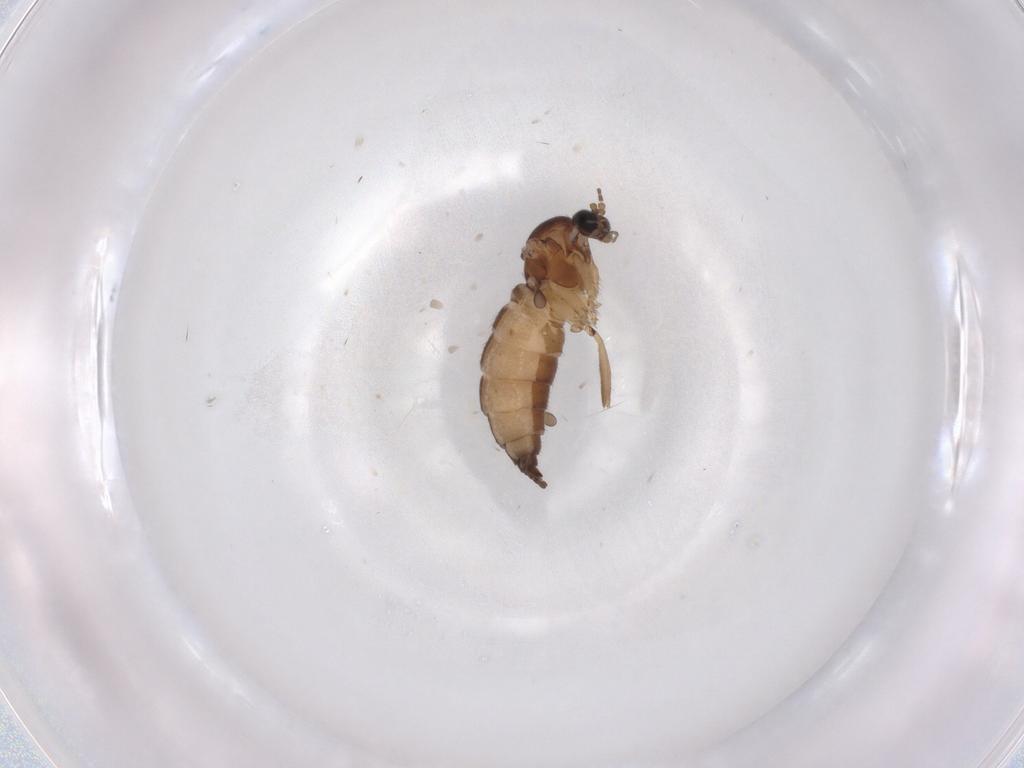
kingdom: Animalia
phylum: Arthropoda
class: Insecta
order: Diptera
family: Sciaridae
